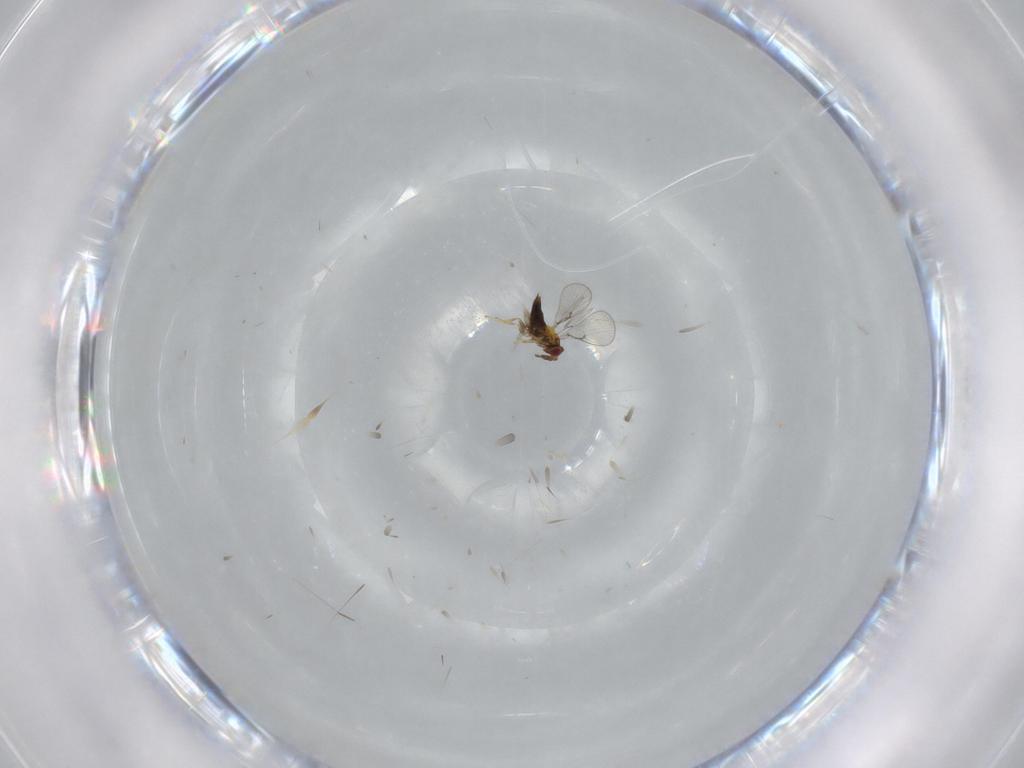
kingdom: Animalia
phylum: Arthropoda
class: Insecta
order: Hymenoptera
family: Trichogrammatidae
